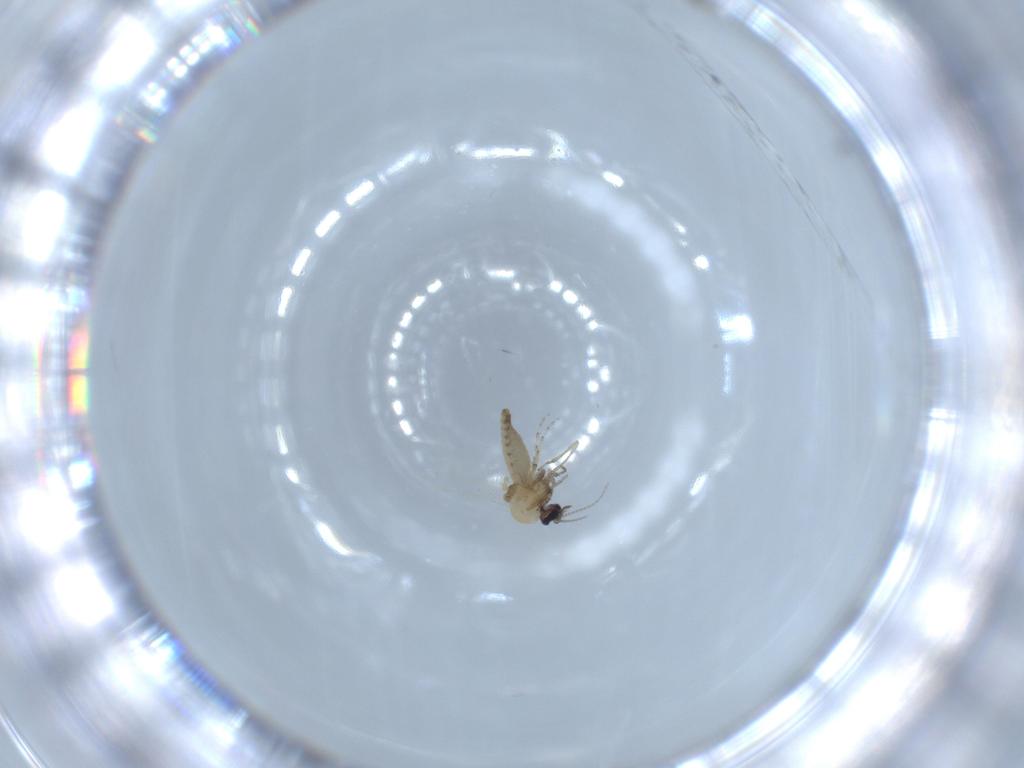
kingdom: Animalia
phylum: Arthropoda
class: Insecta
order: Diptera
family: Ceratopogonidae
